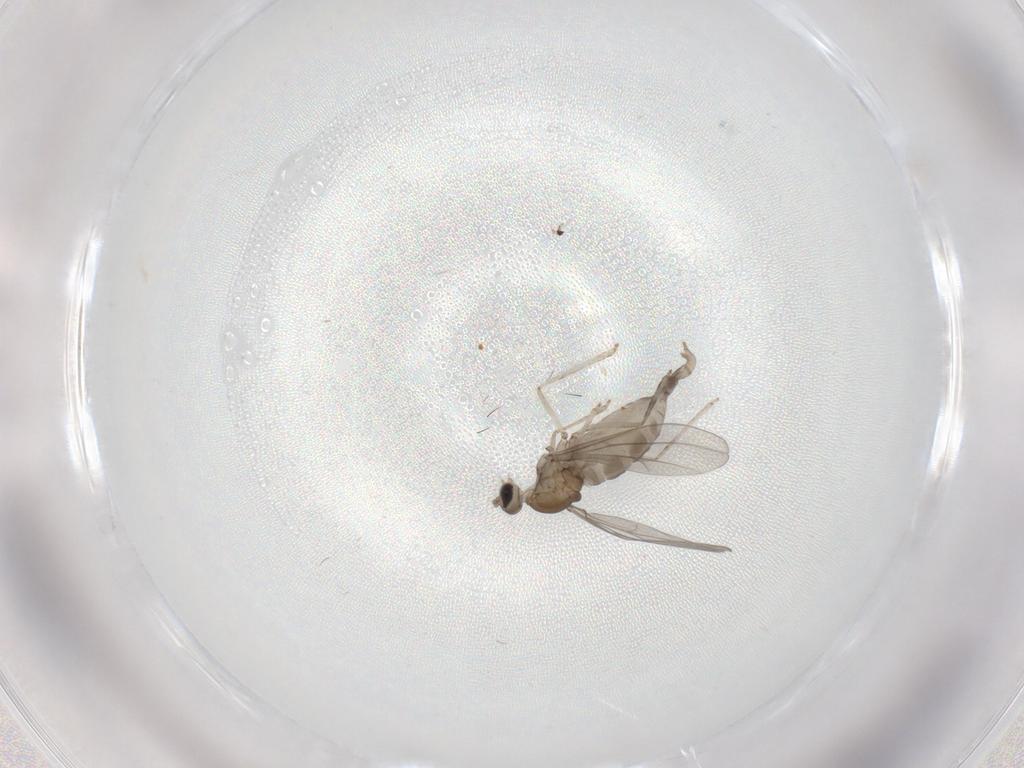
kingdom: Animalia
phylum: Arthropoda
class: Insecta
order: Diptera
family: Cecidomyiidae
